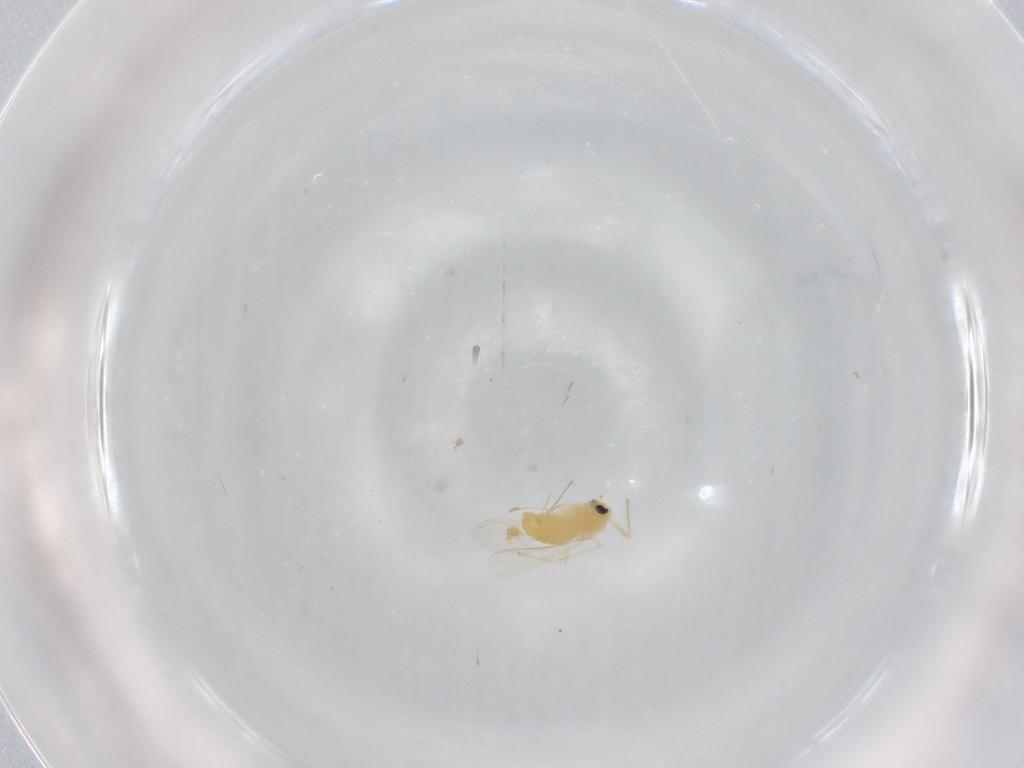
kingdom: Animalia
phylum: Arthropoda
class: Insecta
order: Diptera
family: Chironomidae
